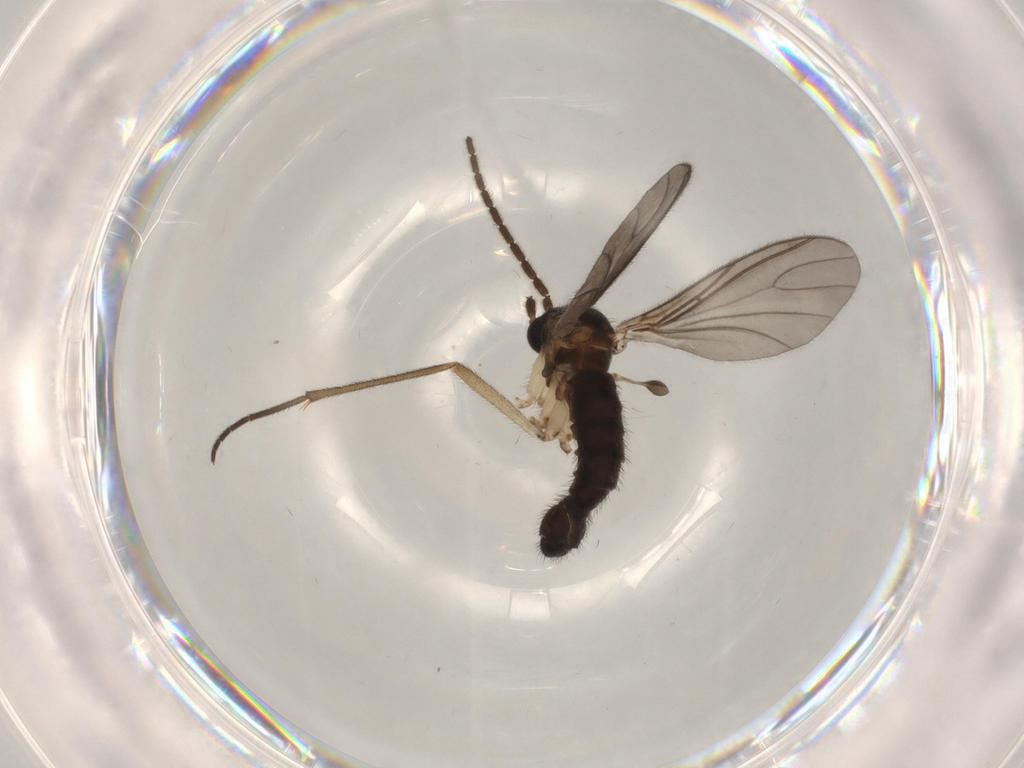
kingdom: Animalia
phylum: Arthropoda
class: Insecta
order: Diptera
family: Sciaridae
